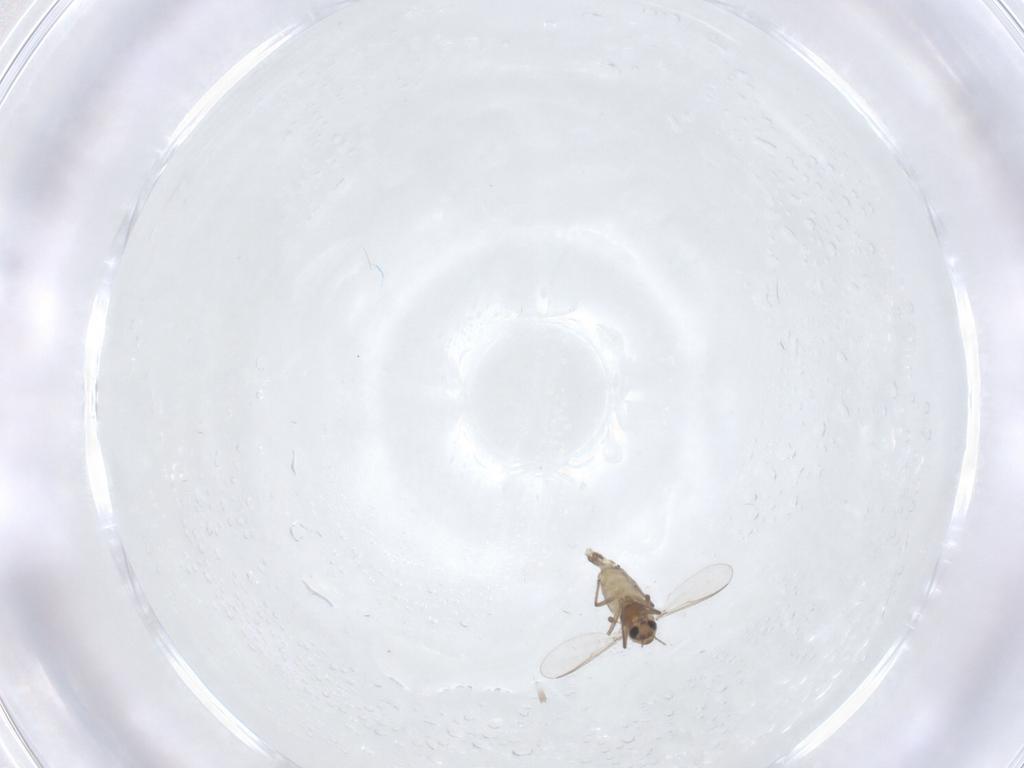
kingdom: Animalia
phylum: Arthropoda
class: Insecta
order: Diptera
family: Chironomidae
